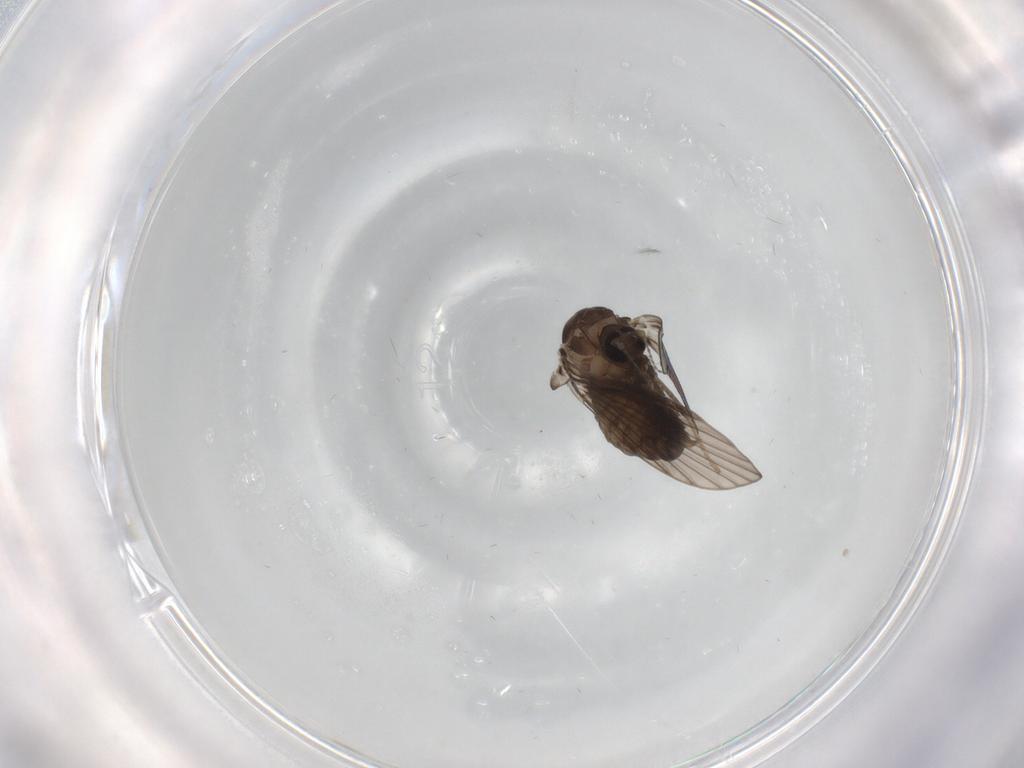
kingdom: Animalia
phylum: Arthropoda
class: Insecta
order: Diptera
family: Psychodidae
